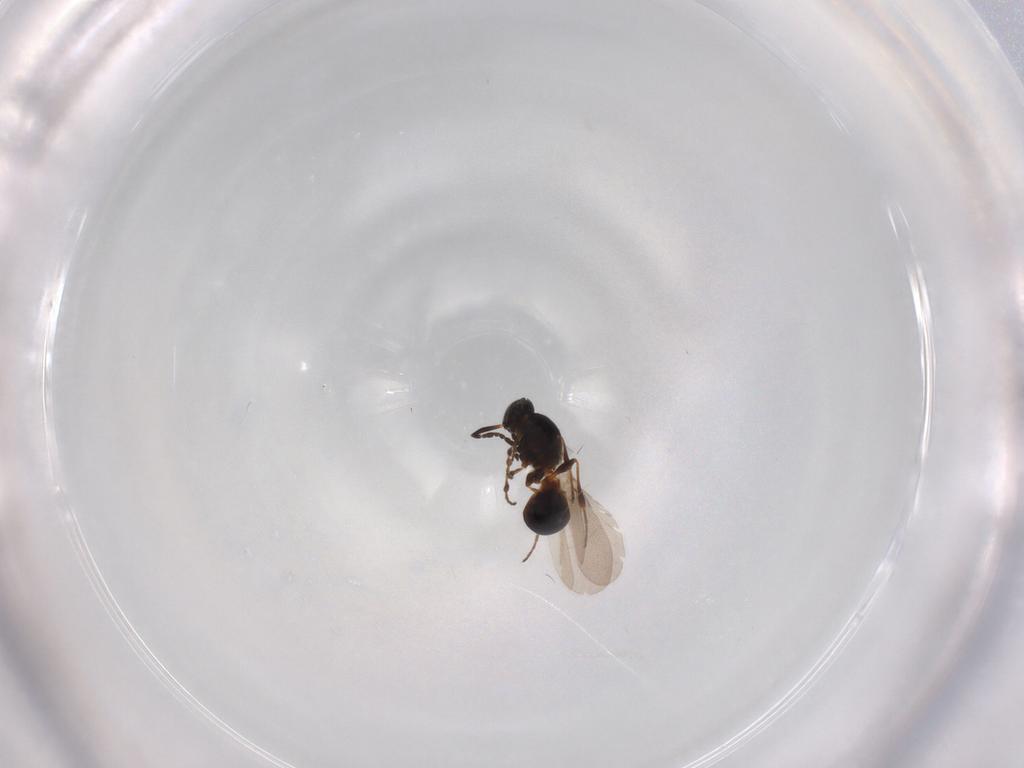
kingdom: Animalia
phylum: Arthropoda
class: Insecta
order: Hymenoptera
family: Platygastridae
